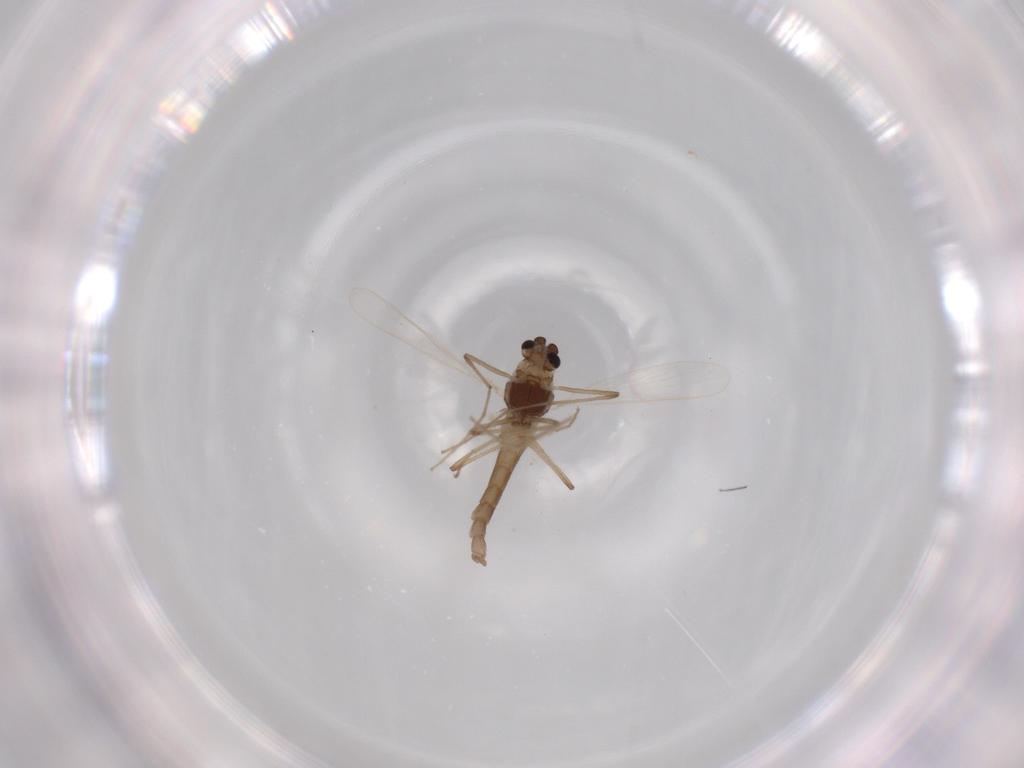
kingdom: Animalia
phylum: Arthropoda
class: Insecta
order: Diptera
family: Chironomidae
